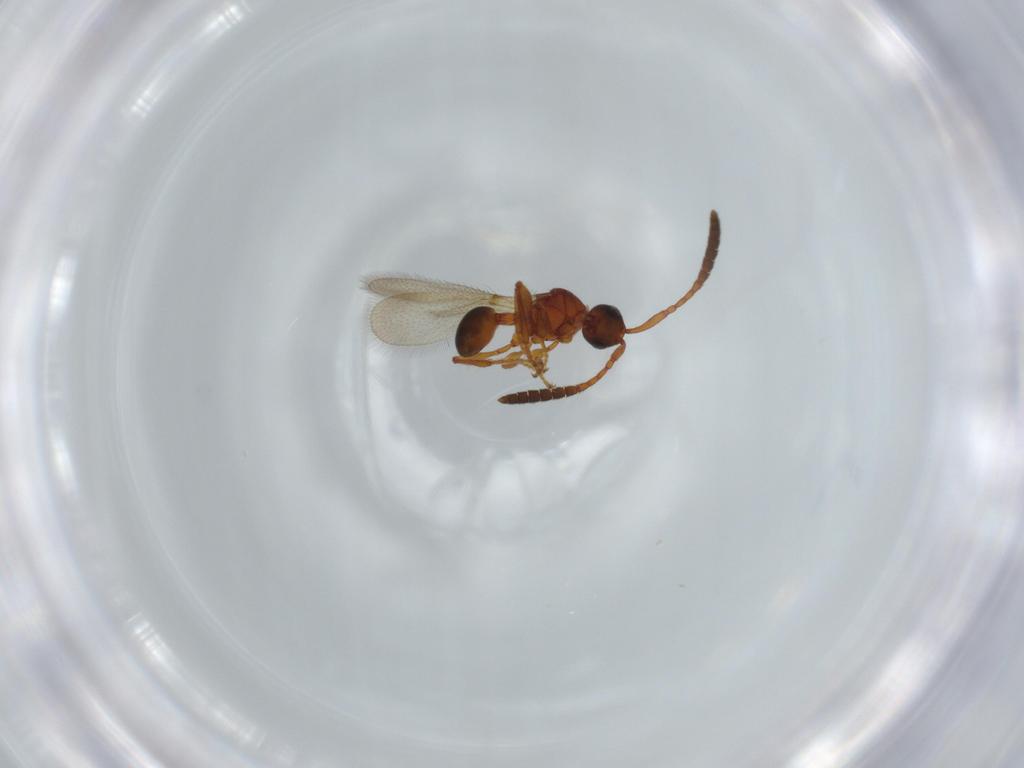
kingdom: Animalia
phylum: Arthropoda
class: Insecta
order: Hymenoptera
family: Diapriidae
